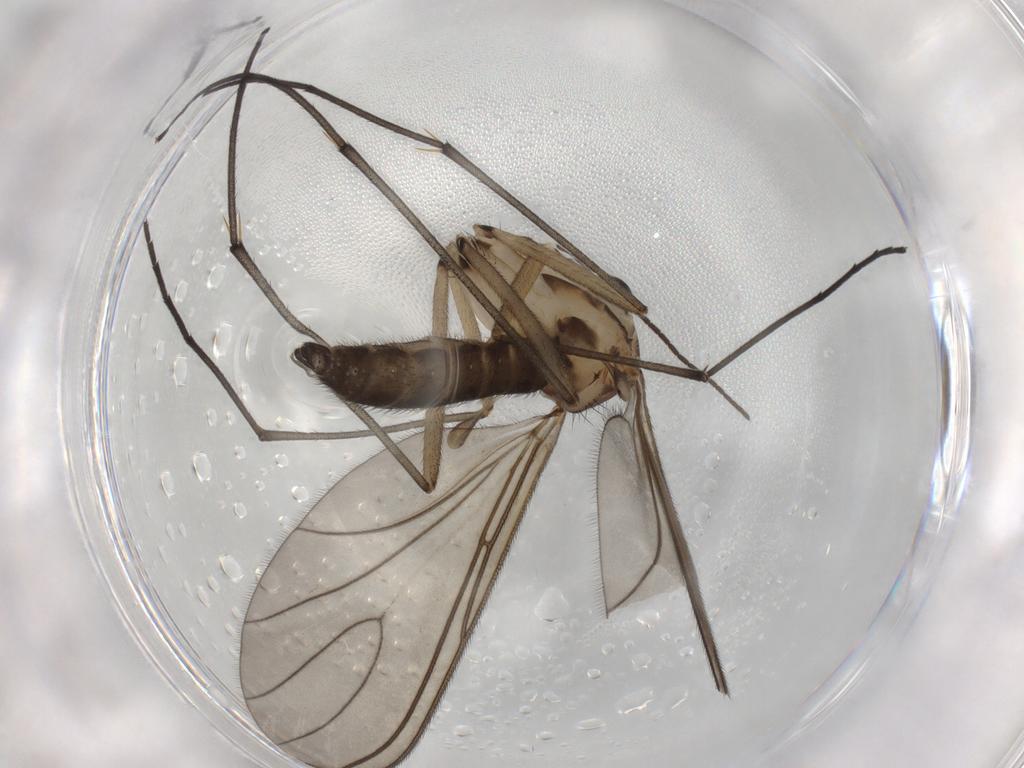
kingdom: Animalia
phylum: Arthropoda
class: Insecta
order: Diptera
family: Sciaridae
